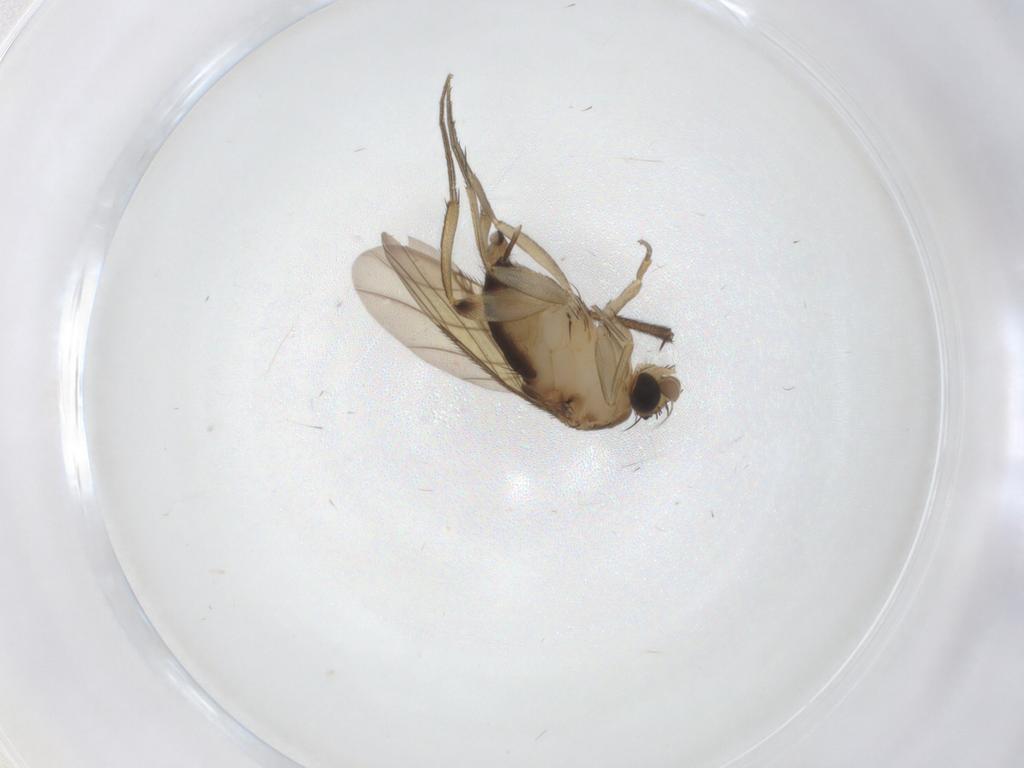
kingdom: Animalia
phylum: Arthropoda
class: Insecta
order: Diptera
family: Phoridae
